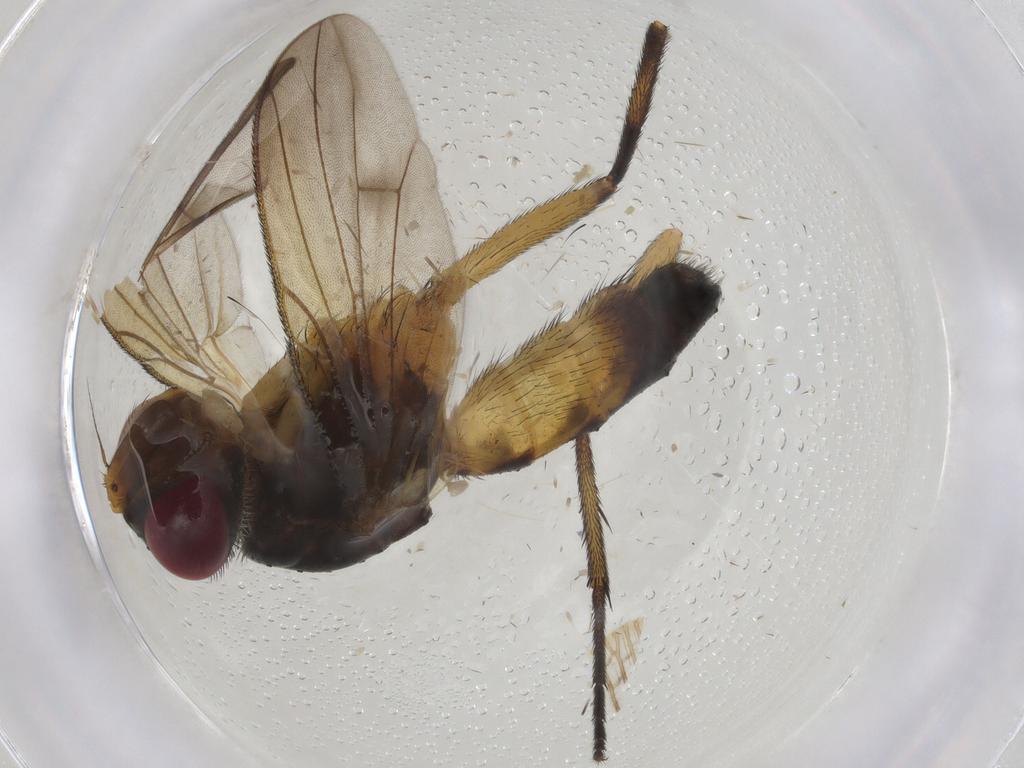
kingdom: Animalia
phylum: Arthropoda
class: Insecta
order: Diptera
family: Tachinidae
